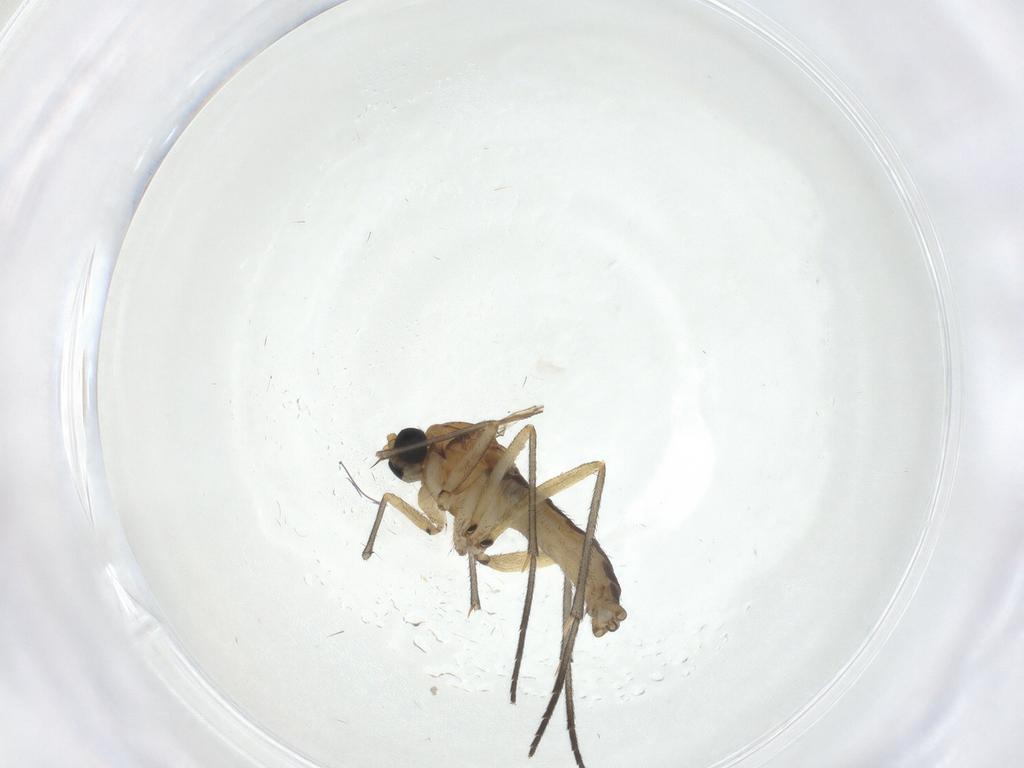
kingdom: Animalia
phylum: Arthropoda
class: Insecta
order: Diptera
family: Sciaridae
